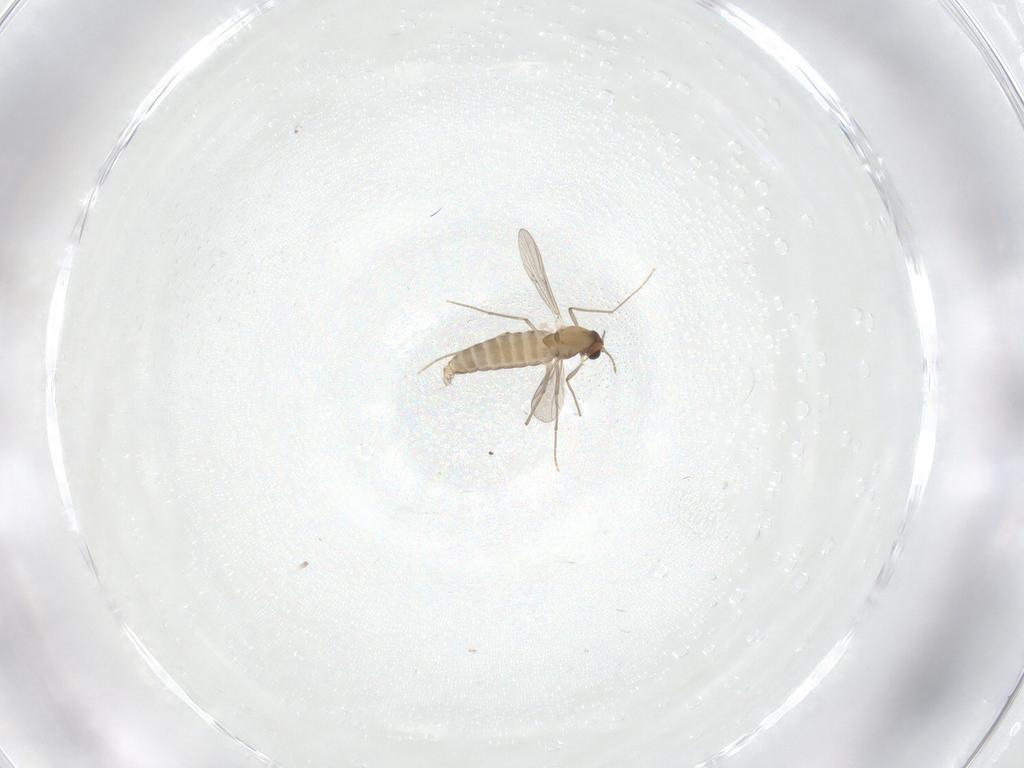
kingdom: Animalia
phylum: Arthropoda
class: Insecta
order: Diptera
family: Chironomidae
